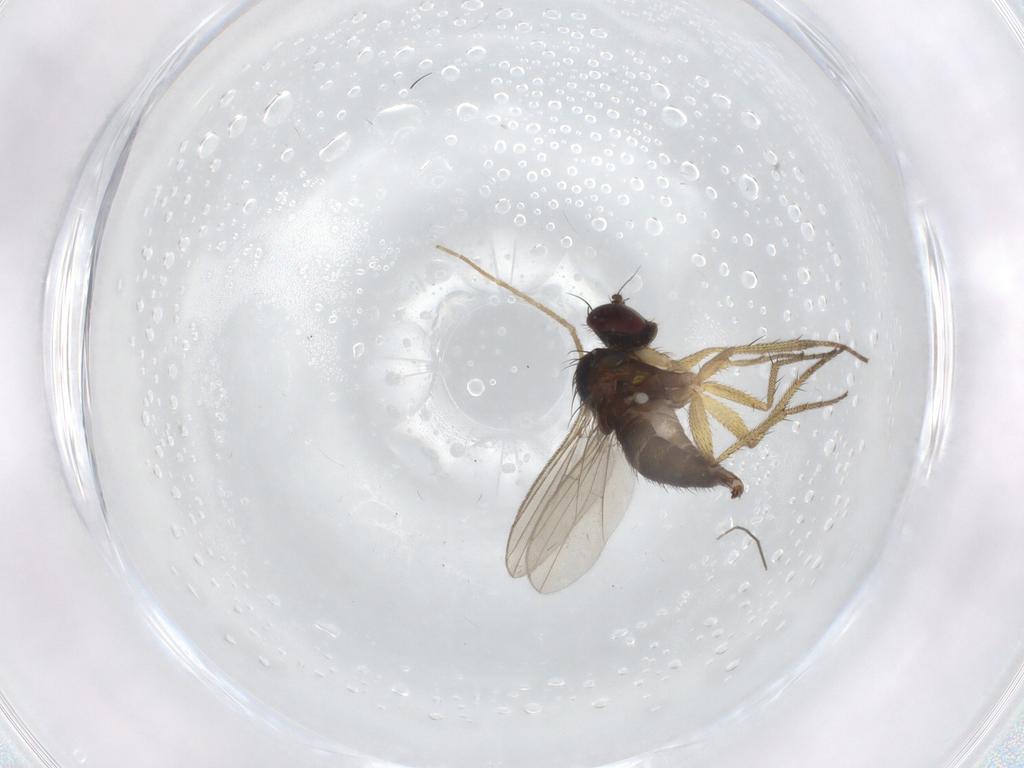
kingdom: Animalia
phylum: Arthropoda
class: Insecta
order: Diptera
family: Chironomidae
